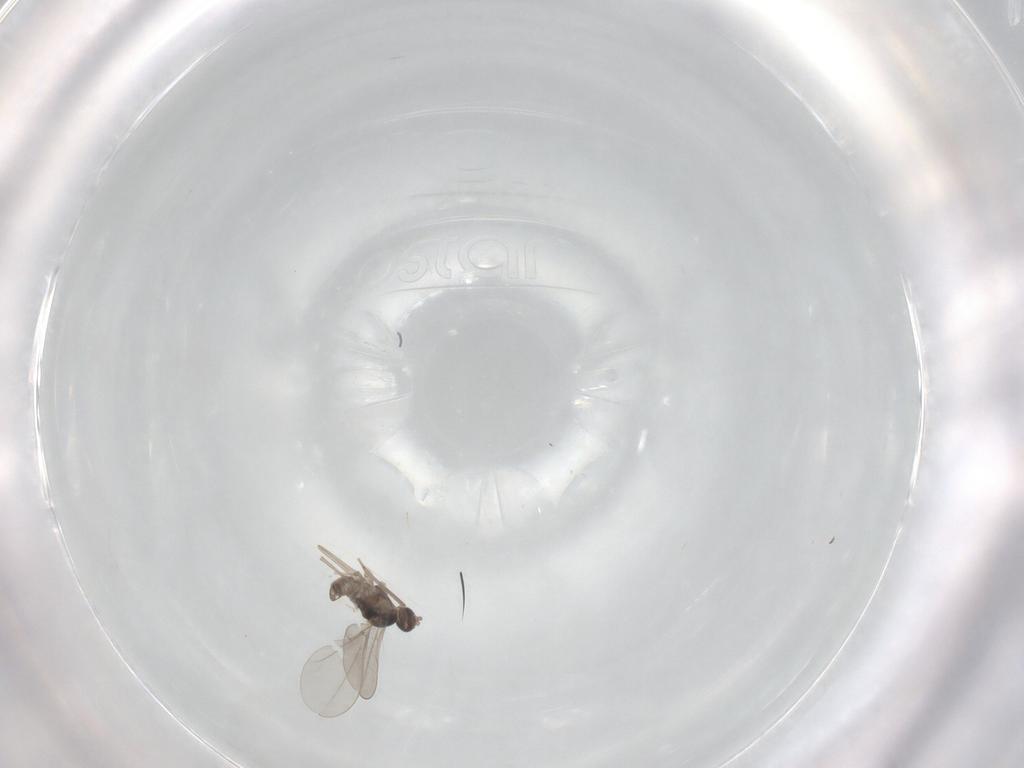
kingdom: Animalia
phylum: Arthropoda
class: Insecta
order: Diptera
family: Cecidomyiidae
